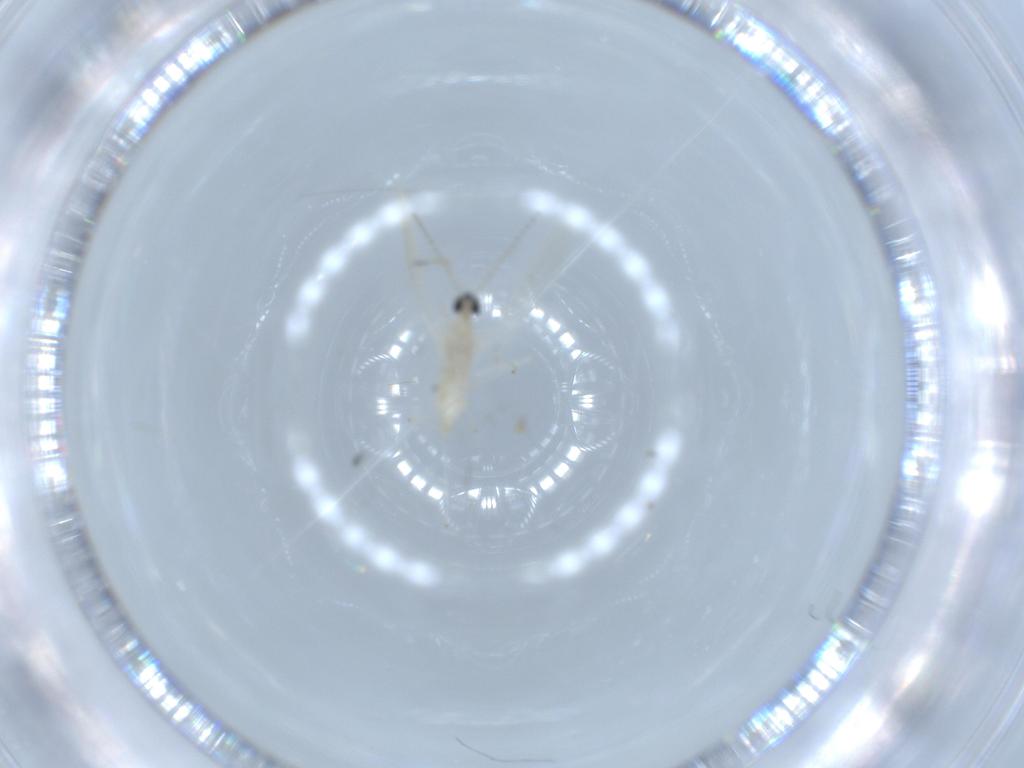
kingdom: Animalia
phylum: Arthropoda
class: Insecta
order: Diptera
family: Cecidomyiidae
